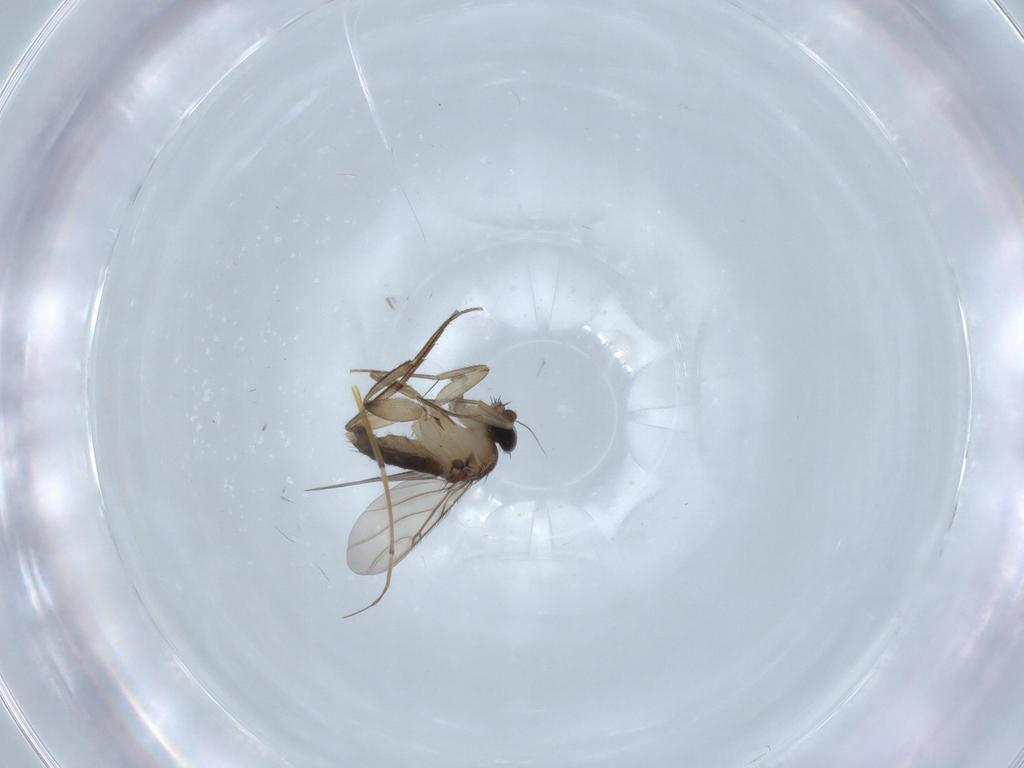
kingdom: Animalia
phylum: Arthropoda
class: Insecta
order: Diptera
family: Phoridae
